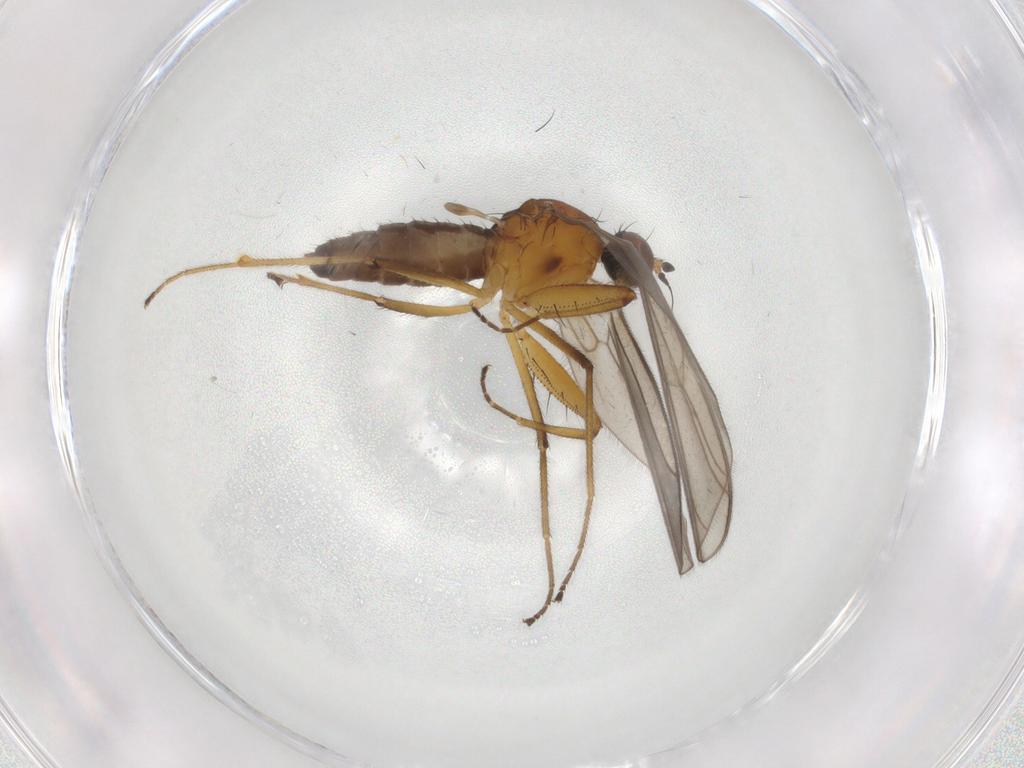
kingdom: Animalia
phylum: Arthropoda
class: Insecta
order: Diptera
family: Empididae
